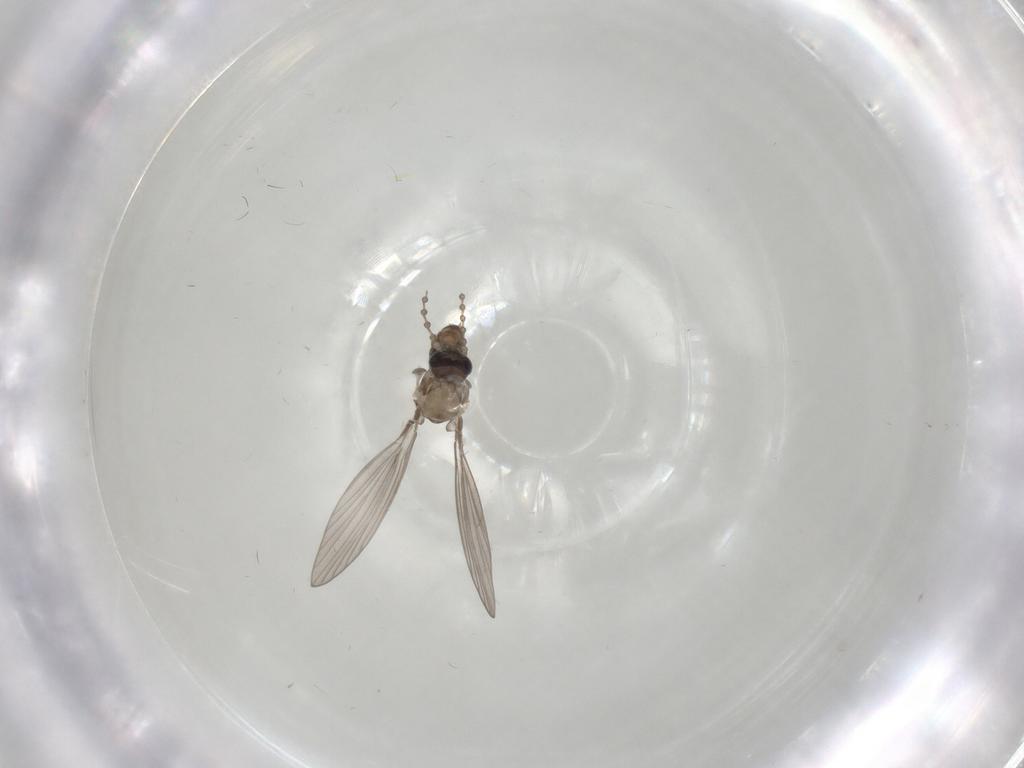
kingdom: Animalia
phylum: Arthropoda
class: Insecta
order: Diptera
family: Psychodidae
